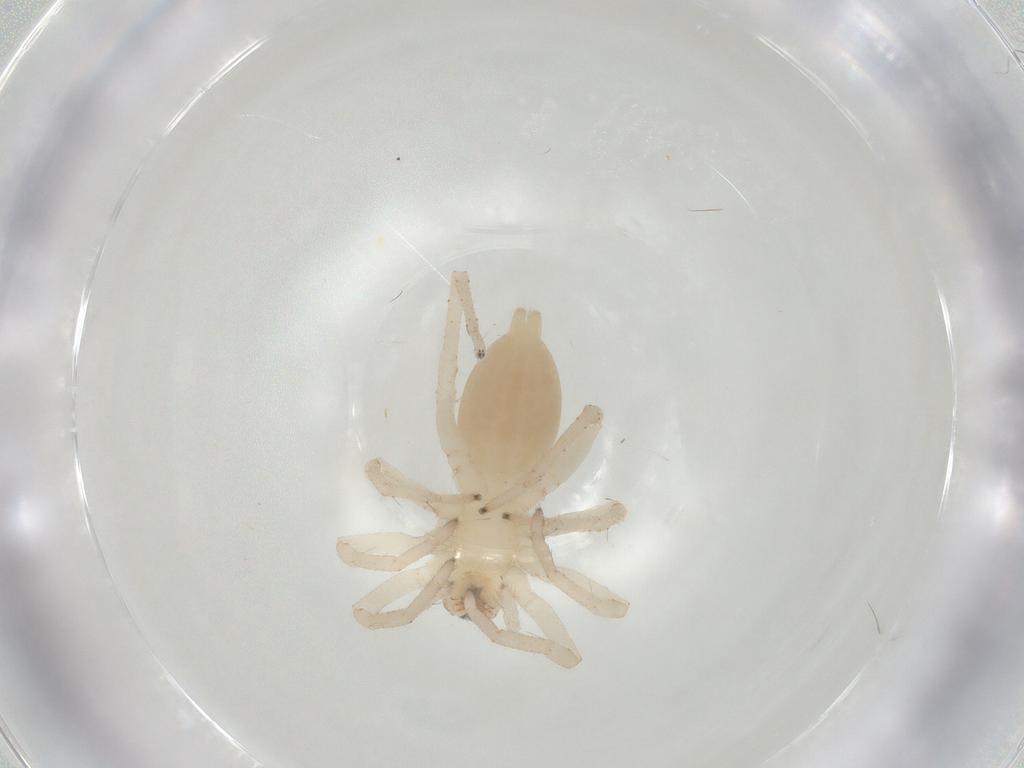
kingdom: Animalia
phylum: Arthropoda
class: Arachnida
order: Araneae
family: Clubionidae
